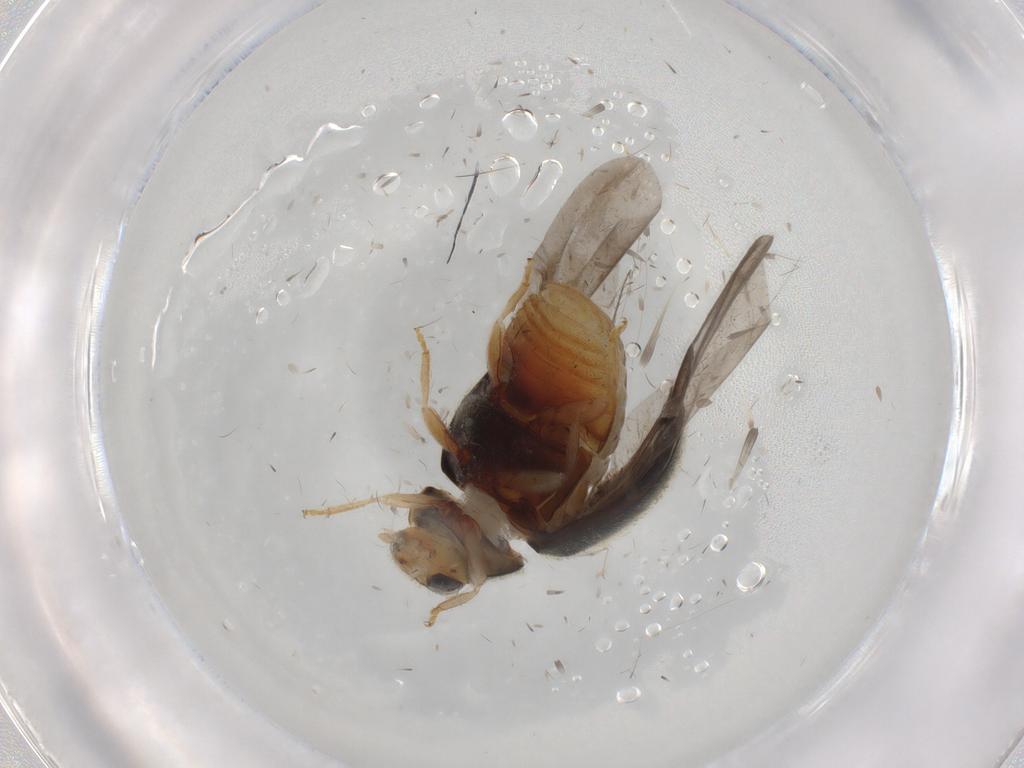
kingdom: Animalia
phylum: Arthropoda
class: Insecta
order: Coleoptera
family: Coccinellidae
